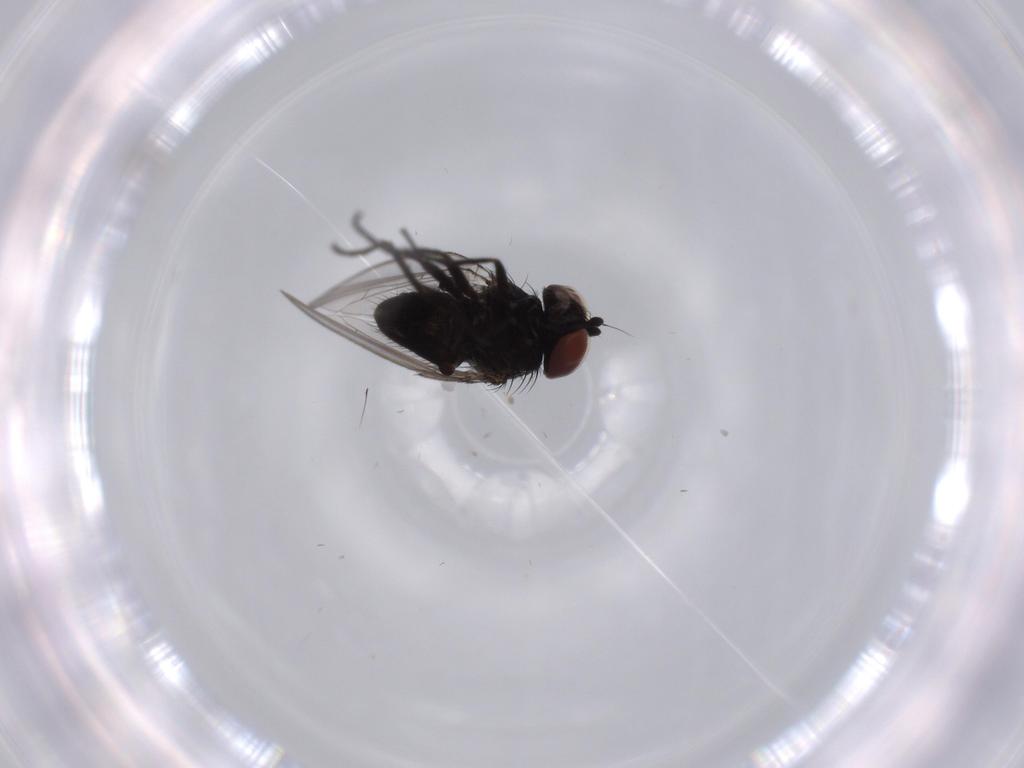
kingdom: Animalia
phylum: Arthropoda
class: Insecta
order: Diptera
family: Milichiidae
